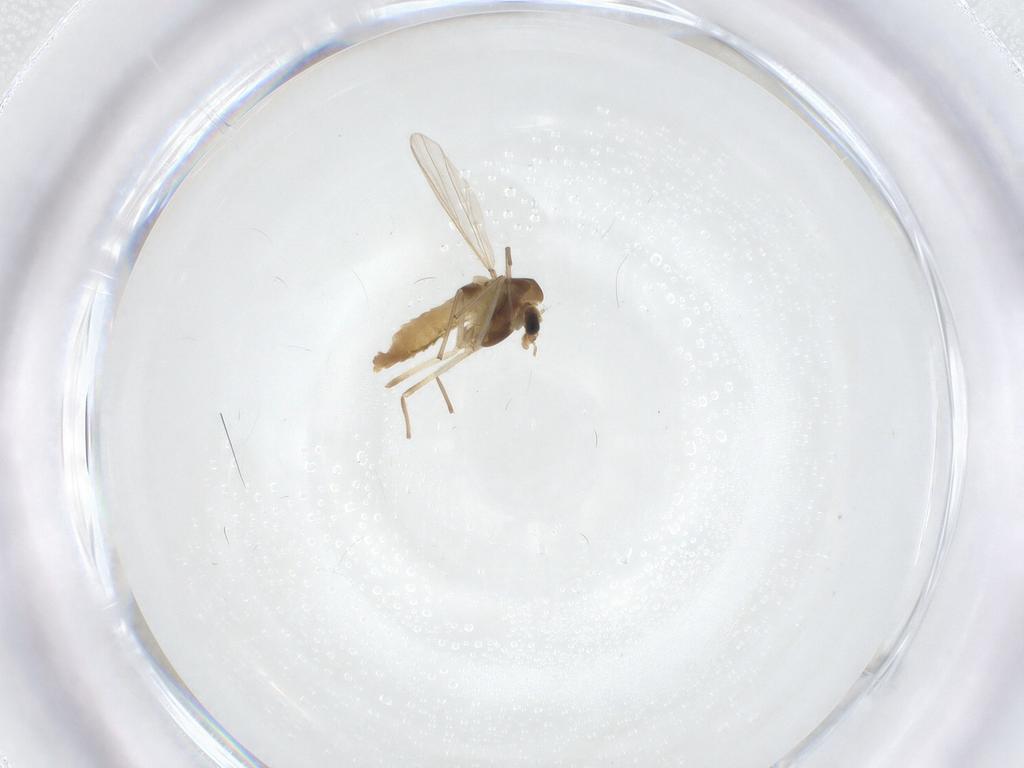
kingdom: Animalia
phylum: Arthropoda
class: Insecta
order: Diptera
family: Chironomidae
